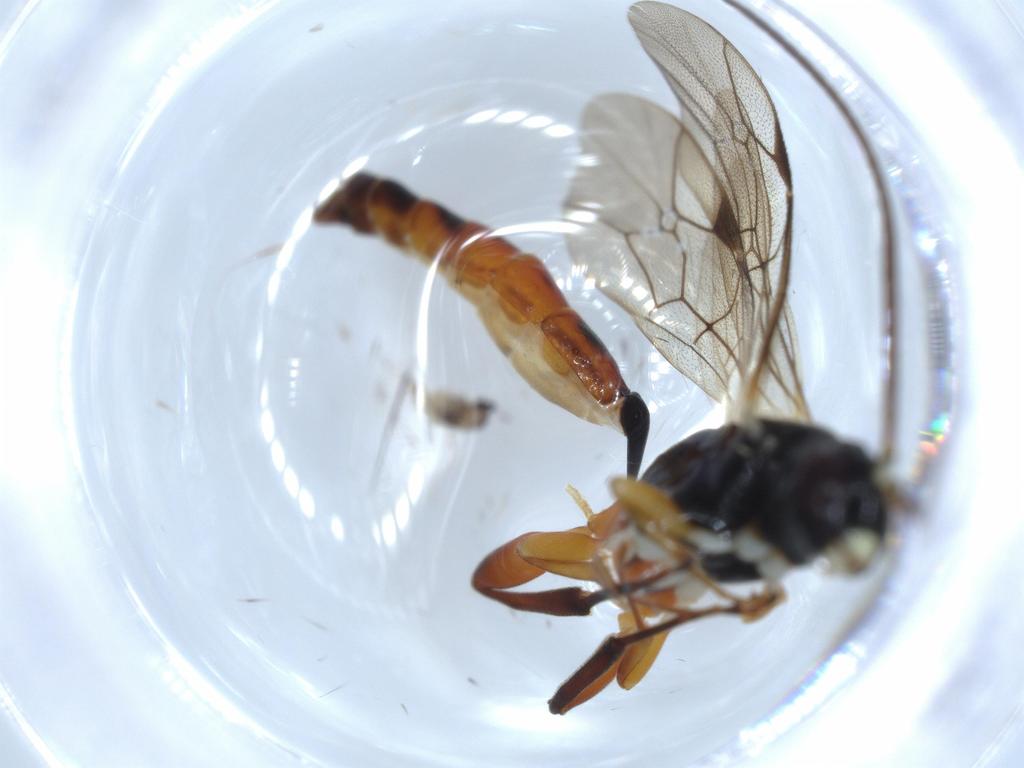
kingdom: Animalia
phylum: Arthropoda
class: Insecta
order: Hymenoptera
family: Ichneumonidae
